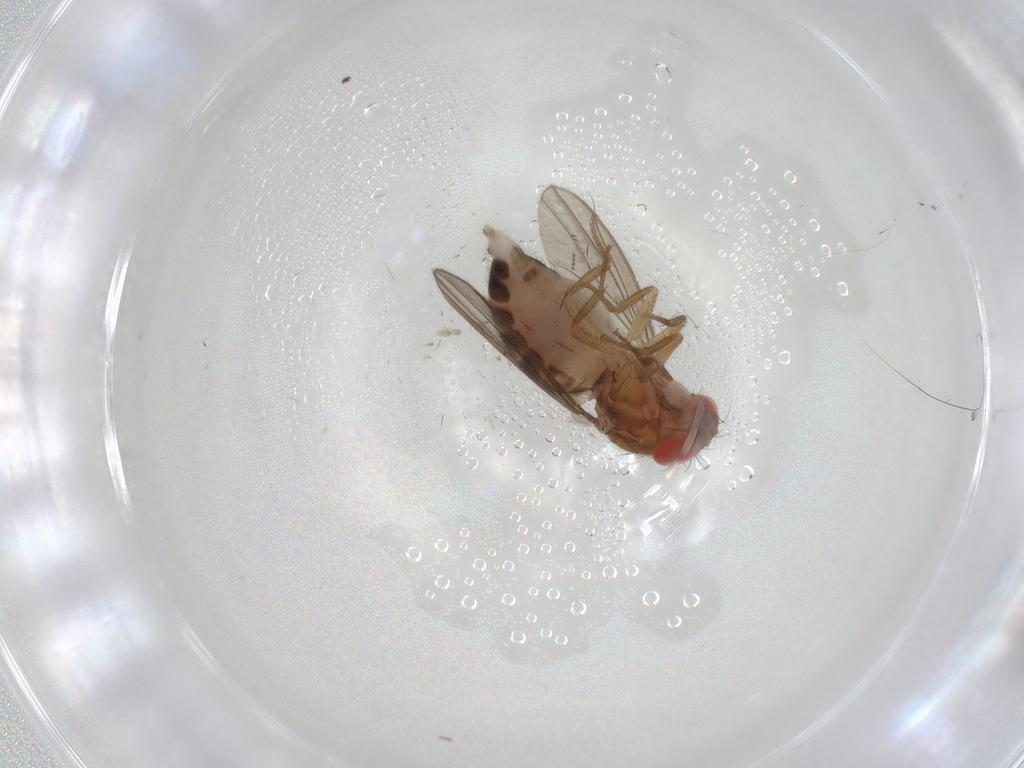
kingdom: Animalia
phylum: Arthropoda
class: Insecta
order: Diptera
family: Drosophilidae
